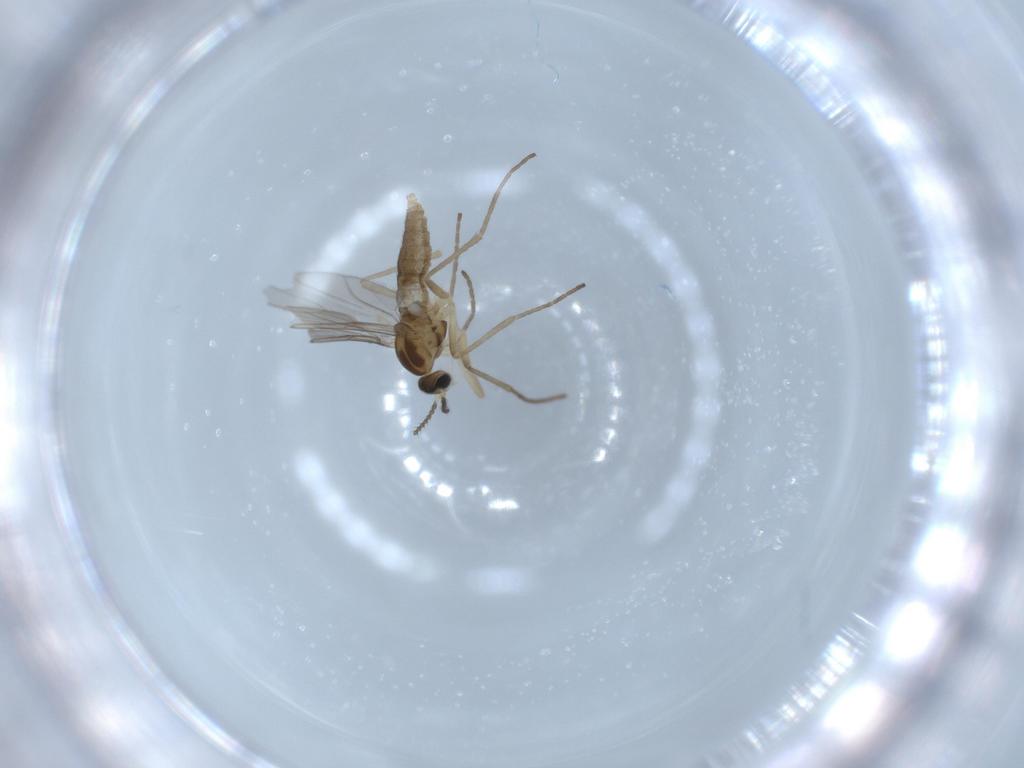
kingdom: Animalia
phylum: Arthropoda
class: Insecta
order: Diptera
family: Cecidomyiidae
